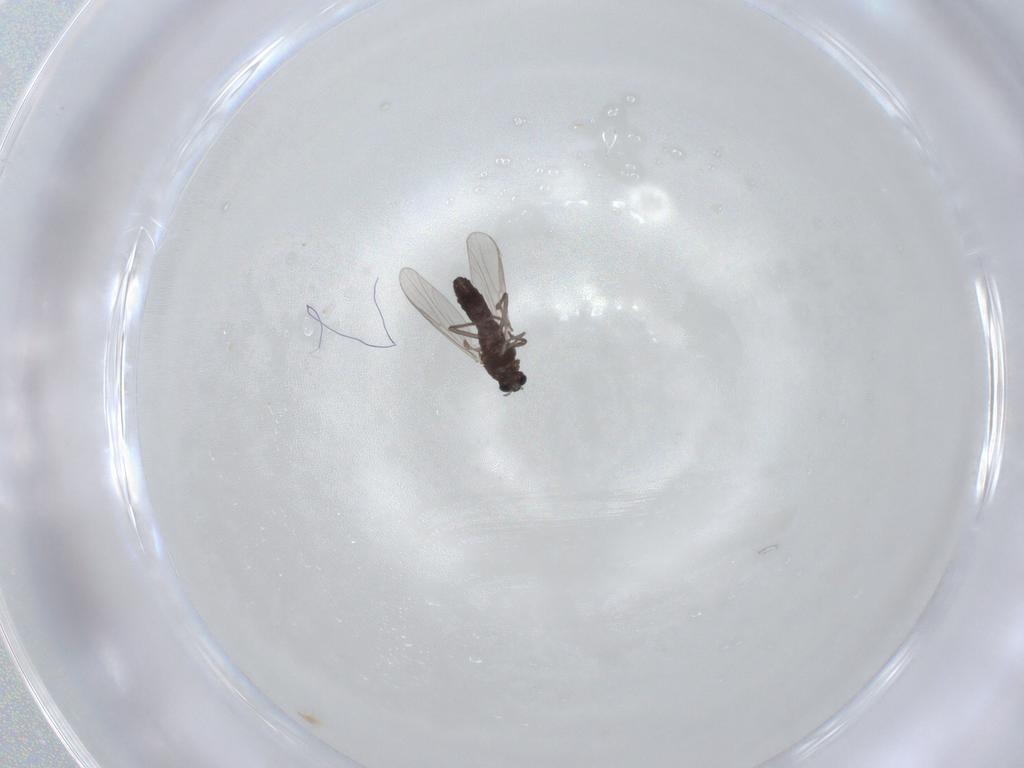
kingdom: Animalia
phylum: Arthropoda
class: Insecta
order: Diptera
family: Chironomidae
